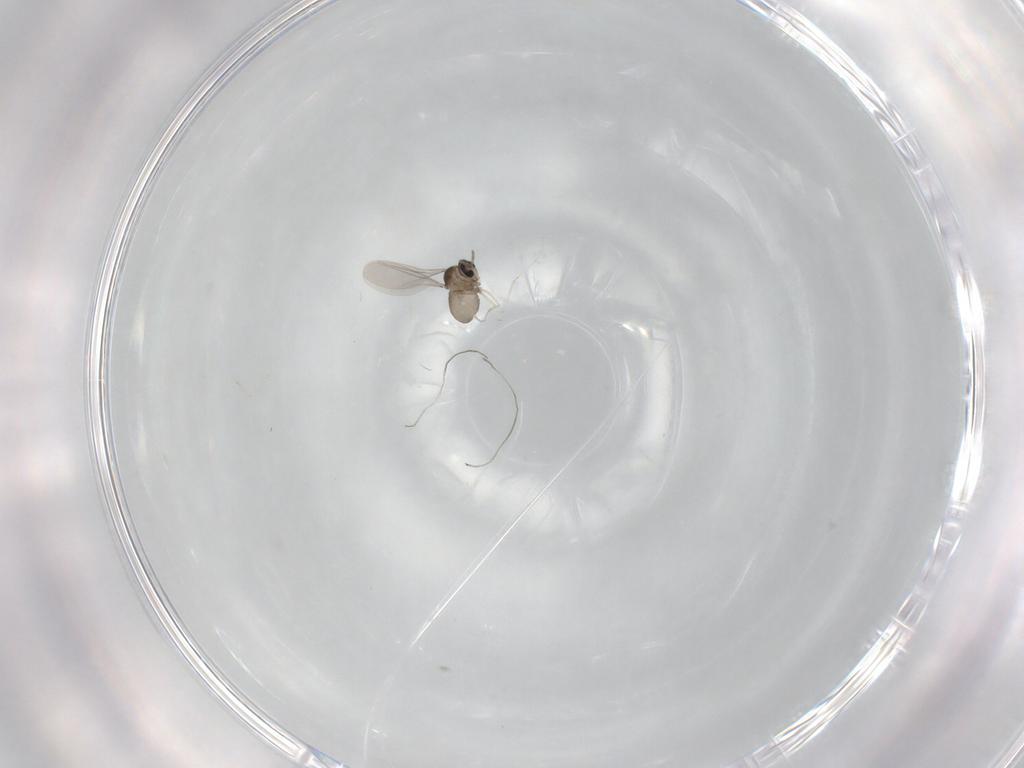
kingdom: Animalia
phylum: Arthropoda
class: Insecta
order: Diptera
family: Cecidomyiidae
